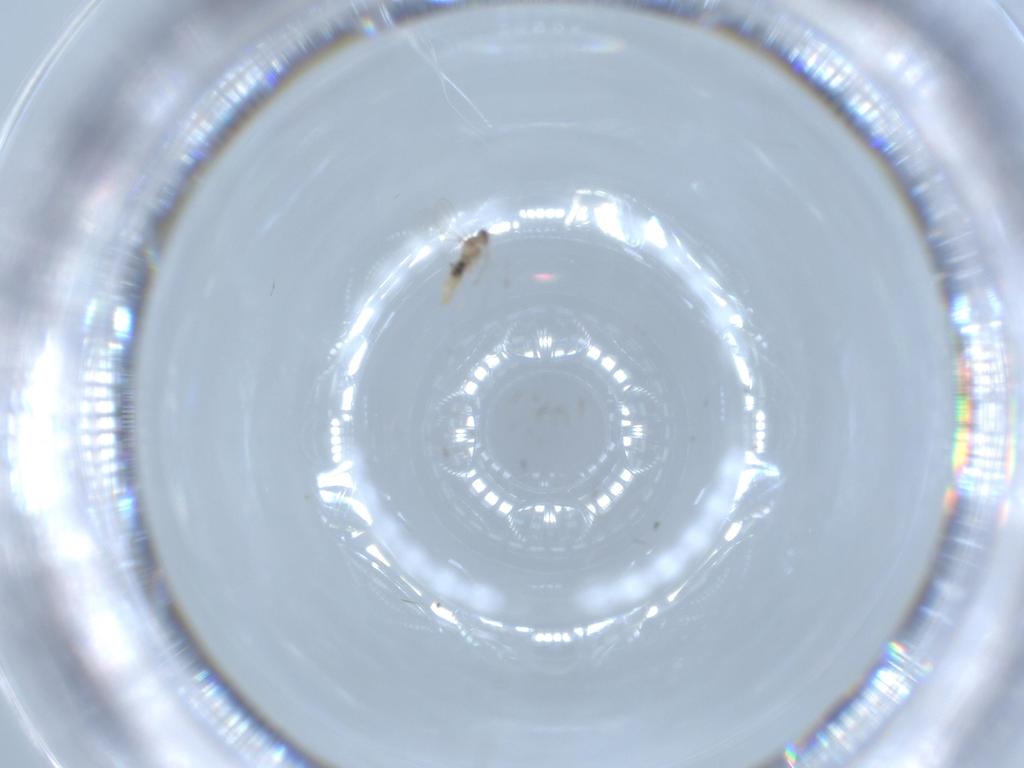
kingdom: Animalia
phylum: Arthropoda
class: Insecta
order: Diptera
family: Cecidomyiidae
